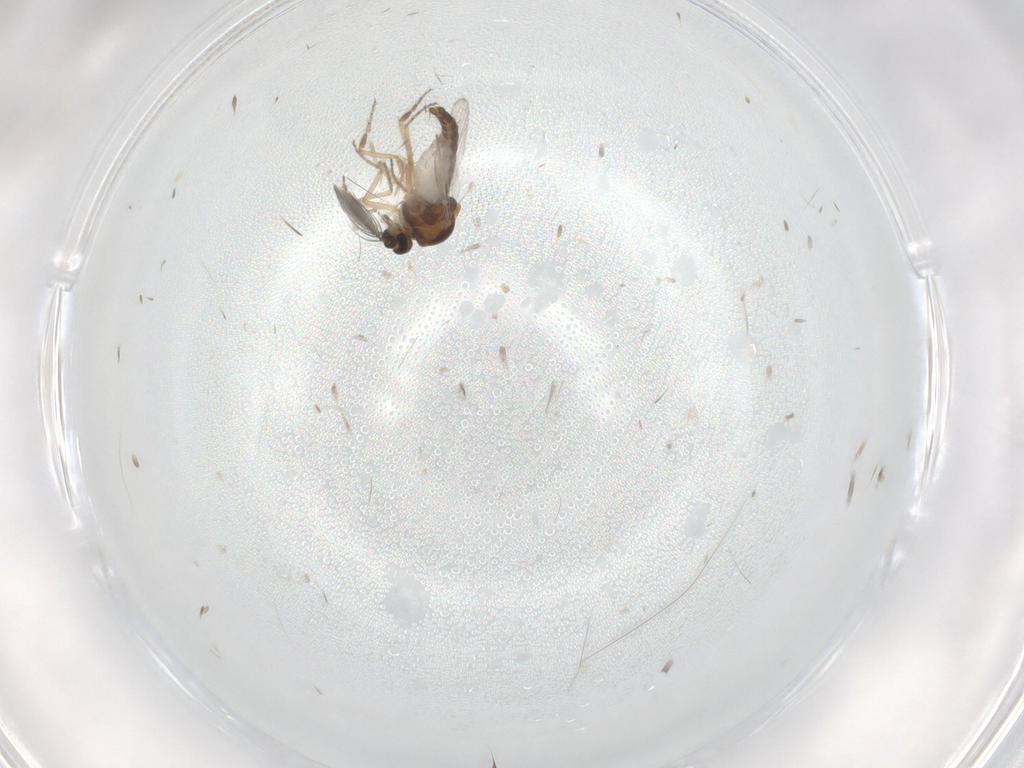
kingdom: Animalia
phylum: Arthropoda
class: Insecta
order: Diptera
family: Ceratopogonidae
